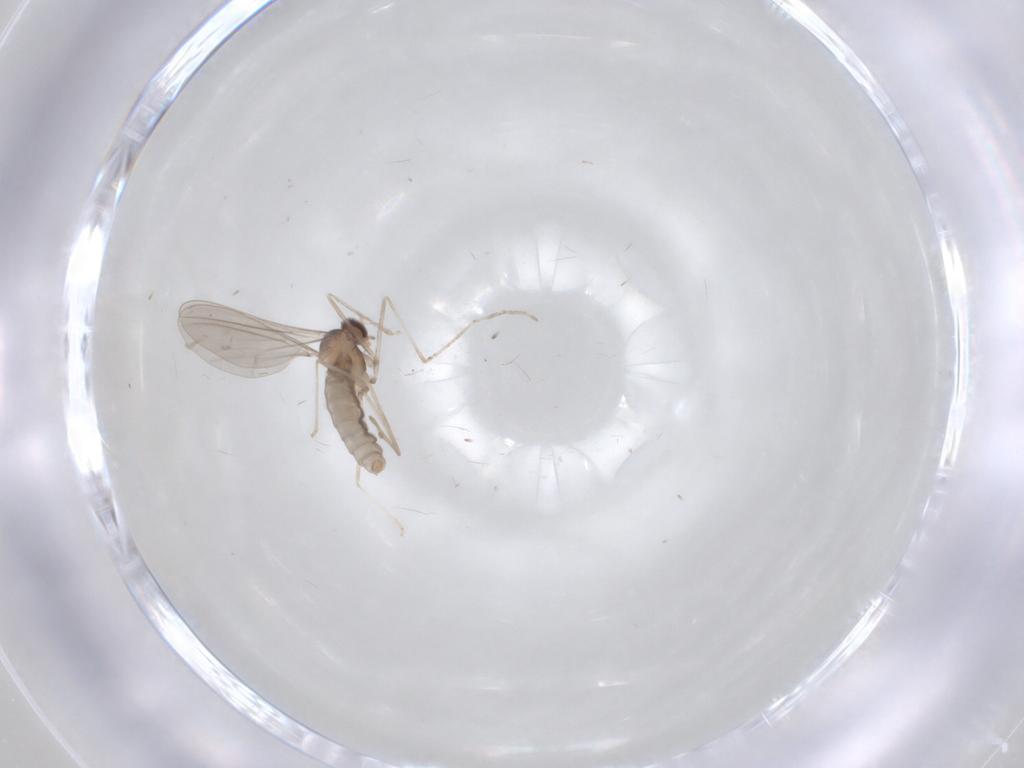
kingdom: Animalia
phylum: Arthropoda
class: Insecta
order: Diptera
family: Cecidomyiidae
